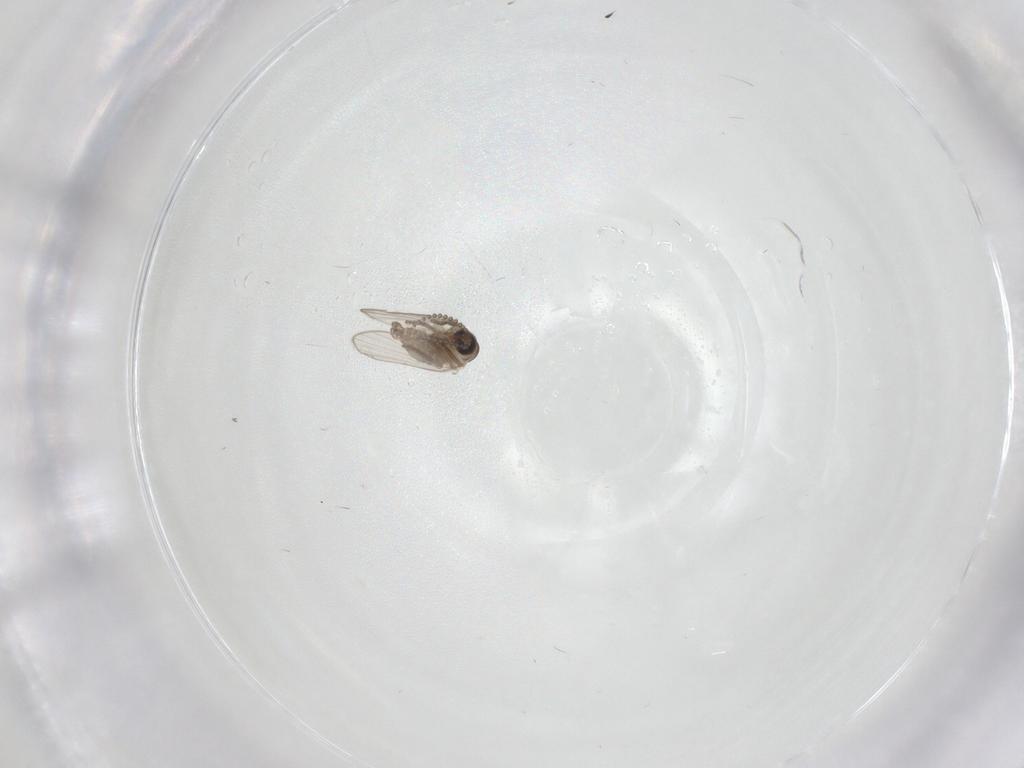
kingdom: Animalia
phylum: Arthropoda
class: Insecta
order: Diptera
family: Psychodidae
